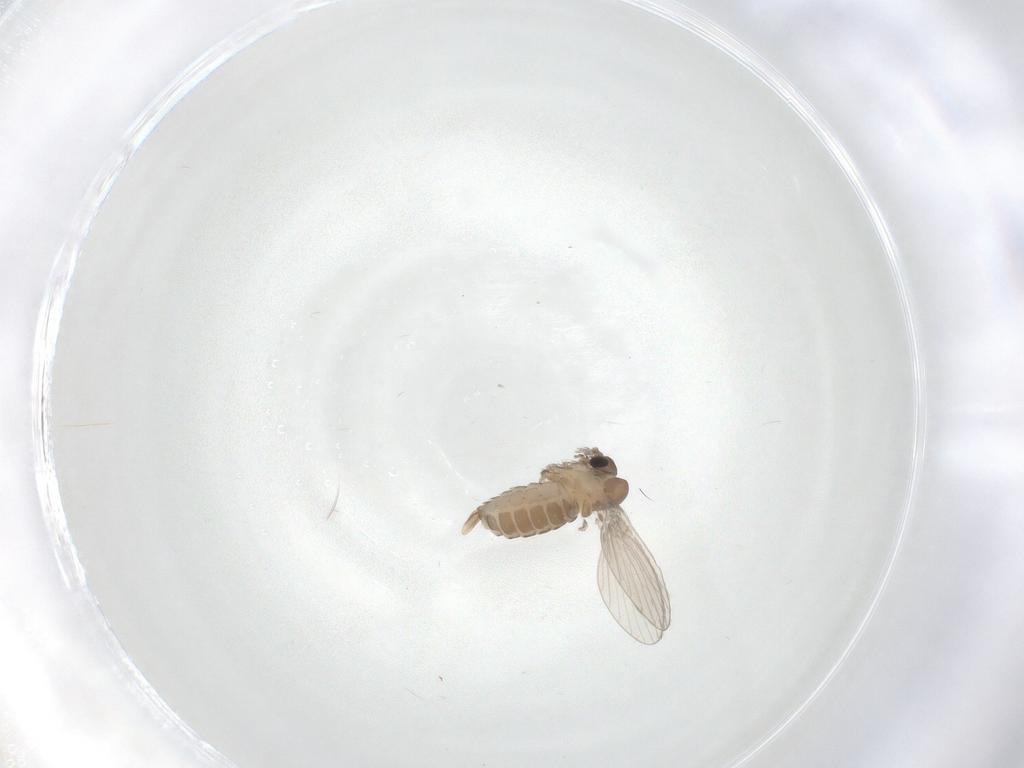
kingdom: Animalia
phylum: Arthropoda
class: Insecta
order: Diptera
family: Psychodidae
